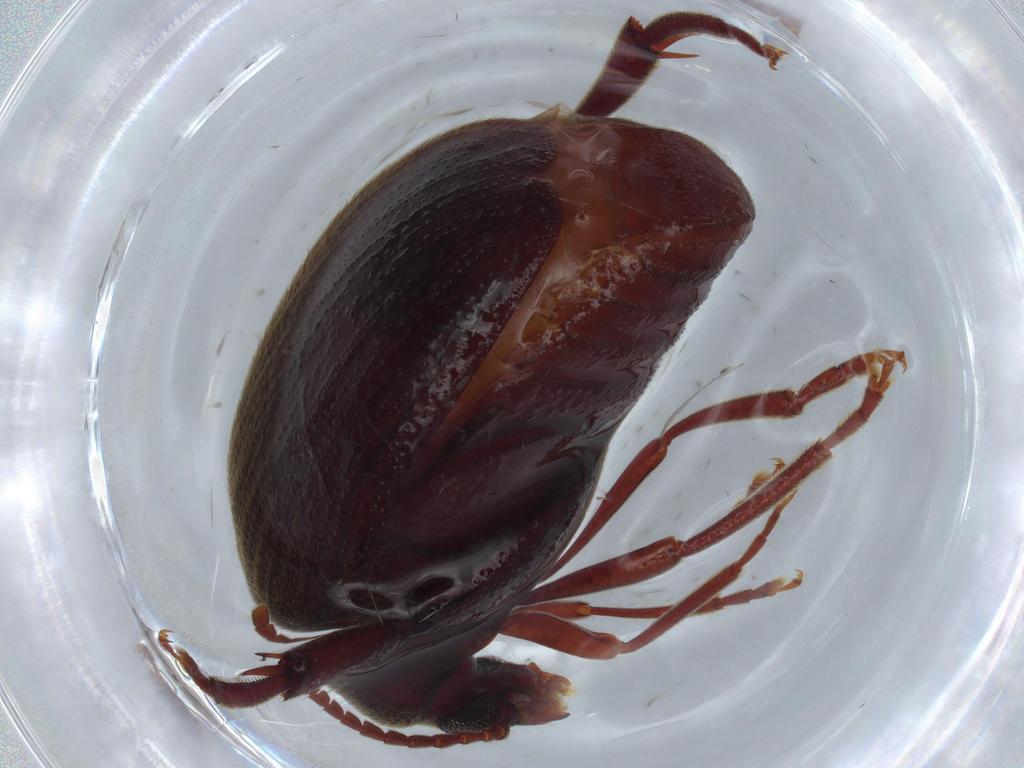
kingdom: Animalia
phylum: Arthropoda
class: Insecta
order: Coleoptera
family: Chrysomelidae
